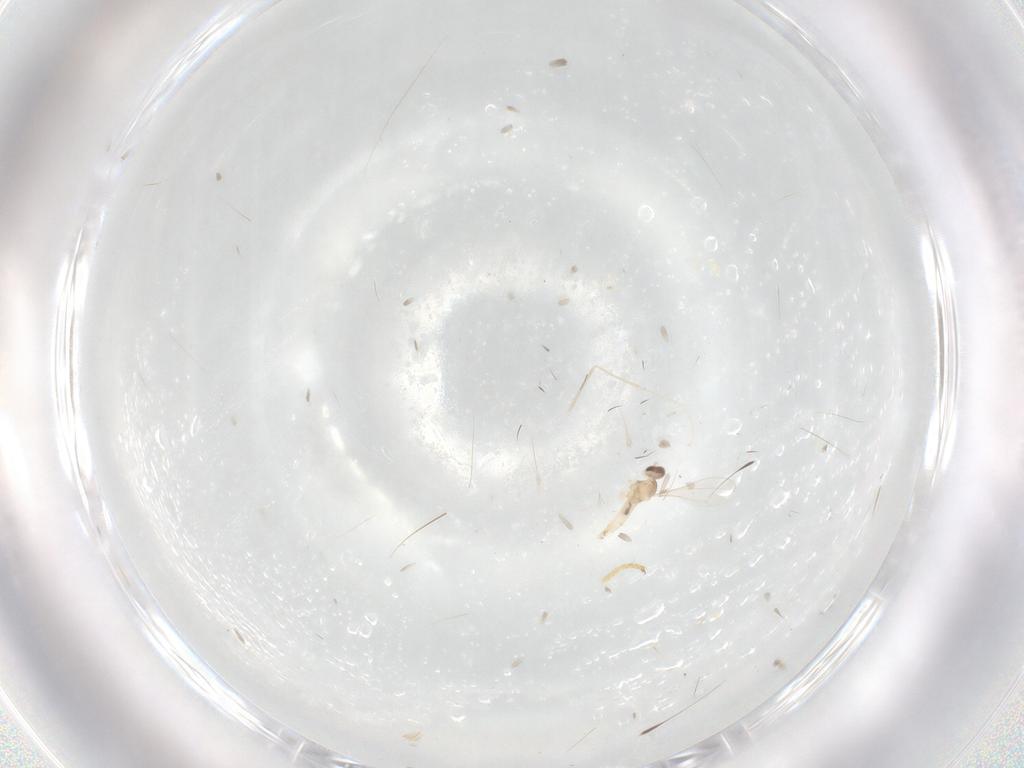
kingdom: Animalia
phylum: Arthropoda
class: Insecta
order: Diptera
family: Cecidomyiidae
